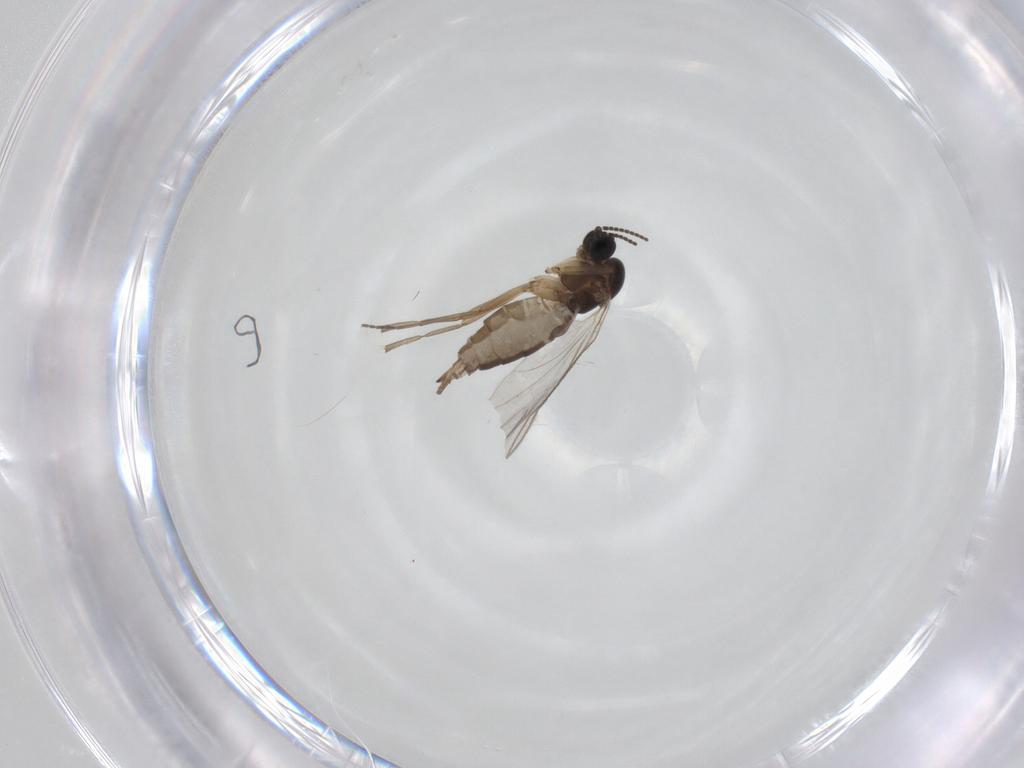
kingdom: Animalia
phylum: Arthropoda
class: Insecta
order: Diptera
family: Sciaridae
